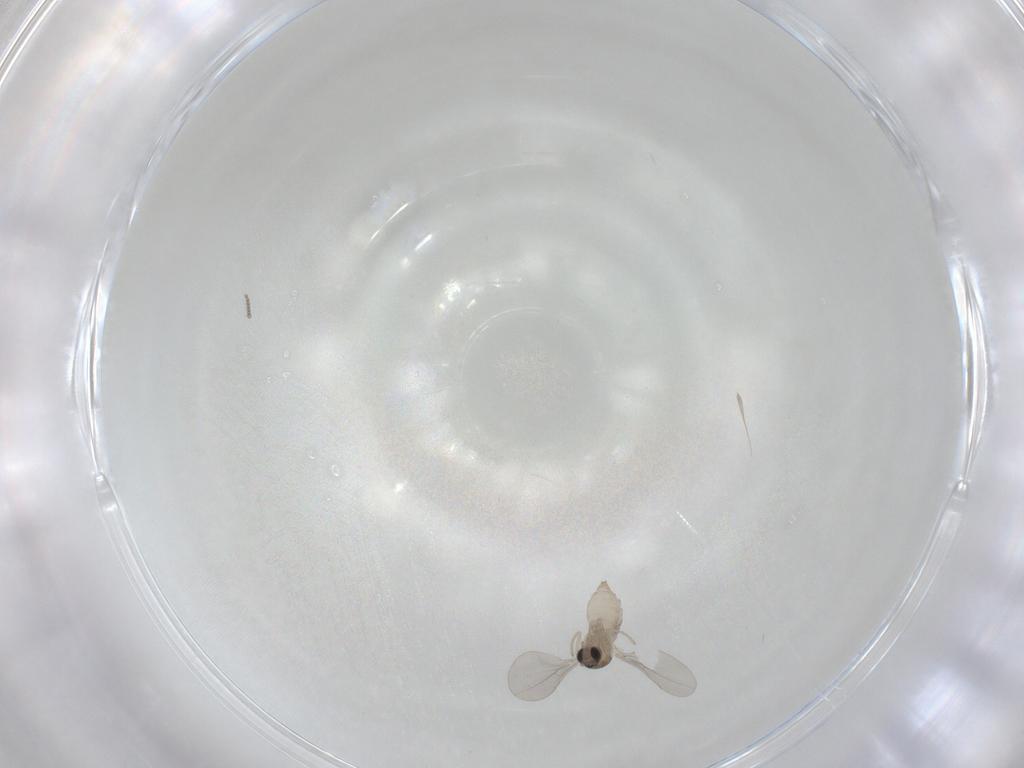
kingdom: Animalia
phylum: Arthropoda
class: Insecta
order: Diptera
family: Cecidomyiidae
